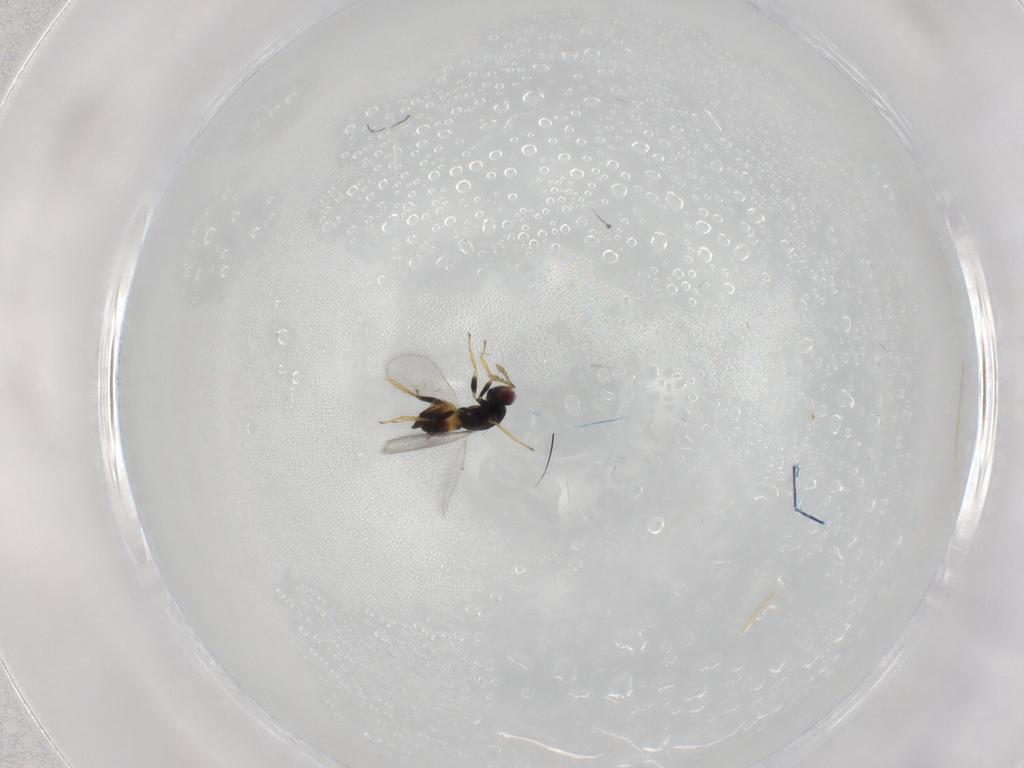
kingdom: Animalia
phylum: Arthropoda
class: Insecta
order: Hymenoptera
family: Eulophidae
